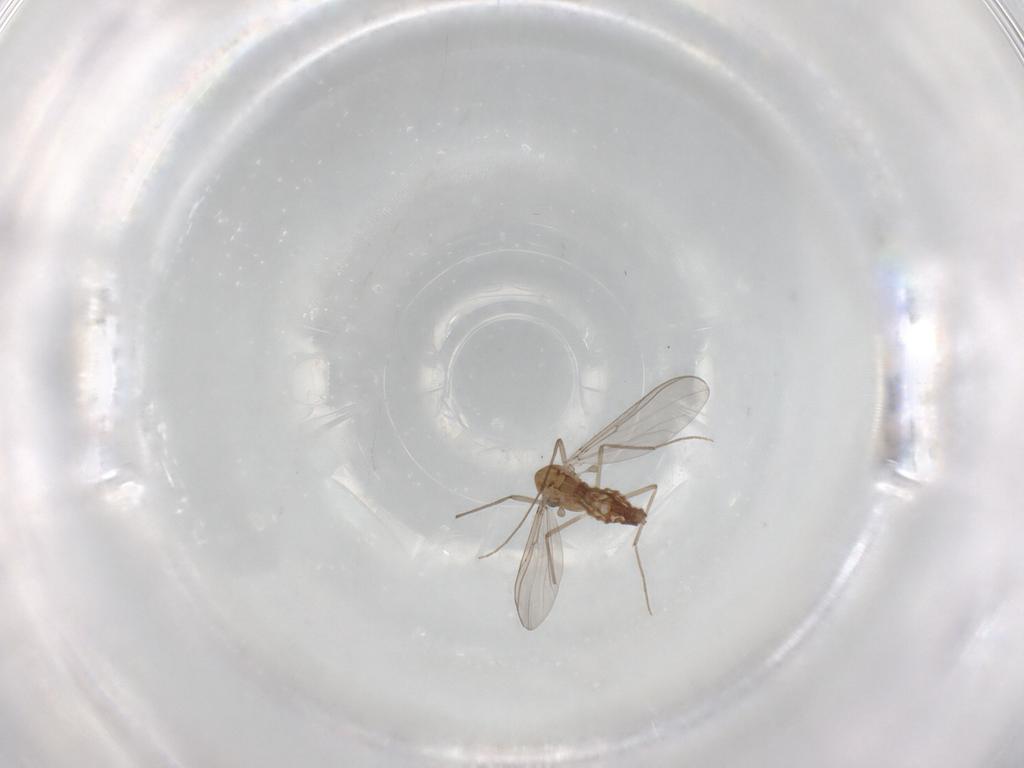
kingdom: Animalia
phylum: Arthropoda
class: Insecta
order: Diptera
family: Chironomidae
